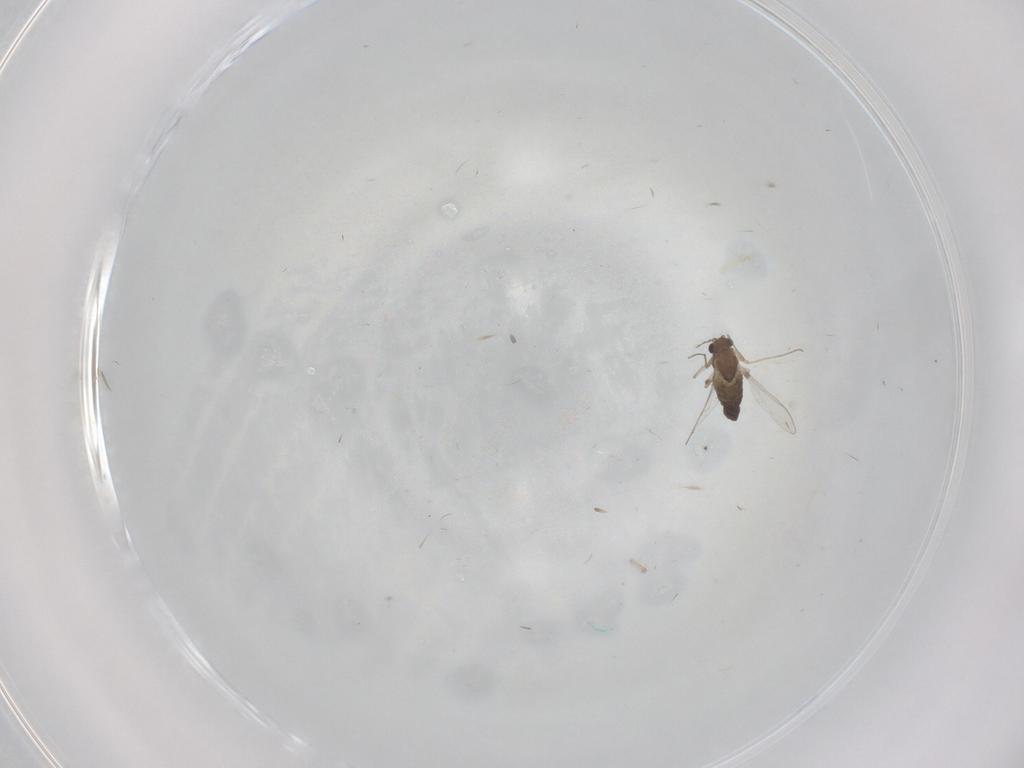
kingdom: Animalia
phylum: Arthropoda
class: Insecta
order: Diptera
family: Chironomidae
